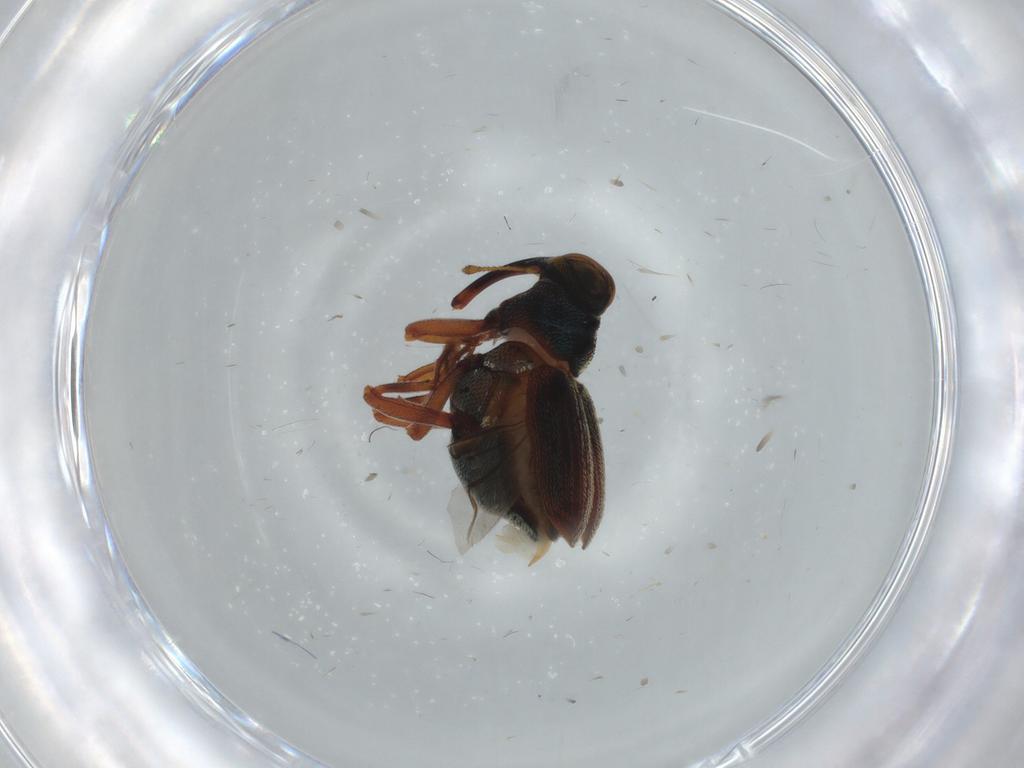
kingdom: Animalia
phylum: Arthropoda
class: Insecta
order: Coleoptera
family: Curculionidae
